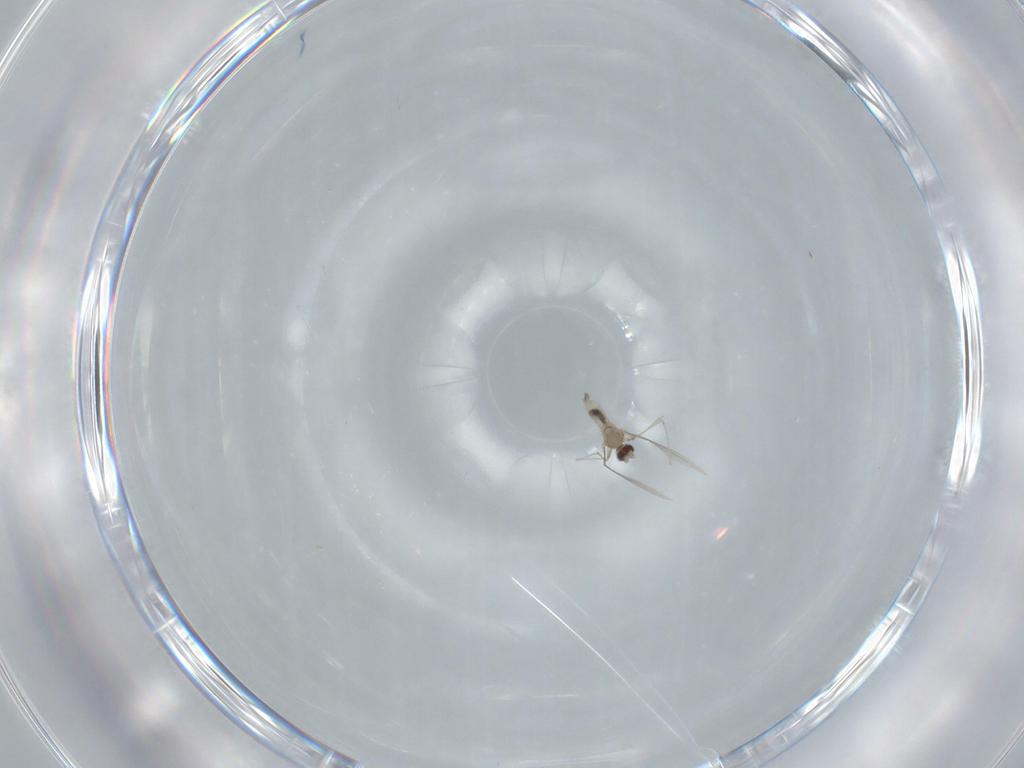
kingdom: Animalia
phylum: Arthropoda
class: Insecta
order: Diptera
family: Cecidomyiidae
